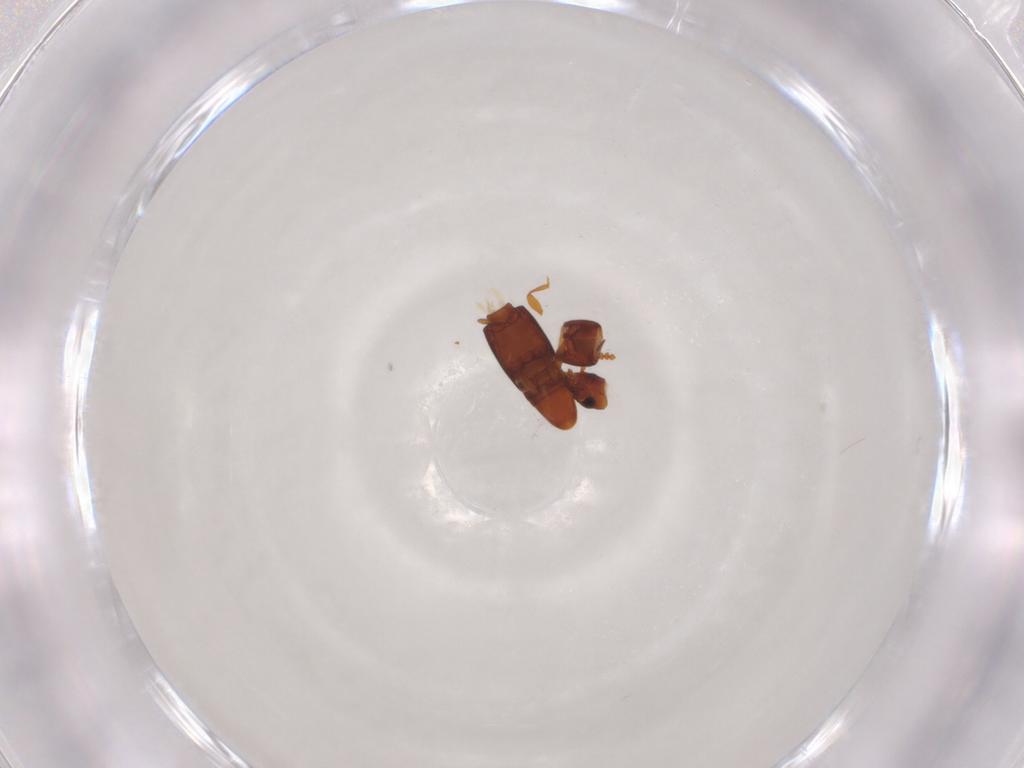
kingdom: Animalia
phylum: Arthropoda
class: Insecta
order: Coleoptera
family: Smicripidae
